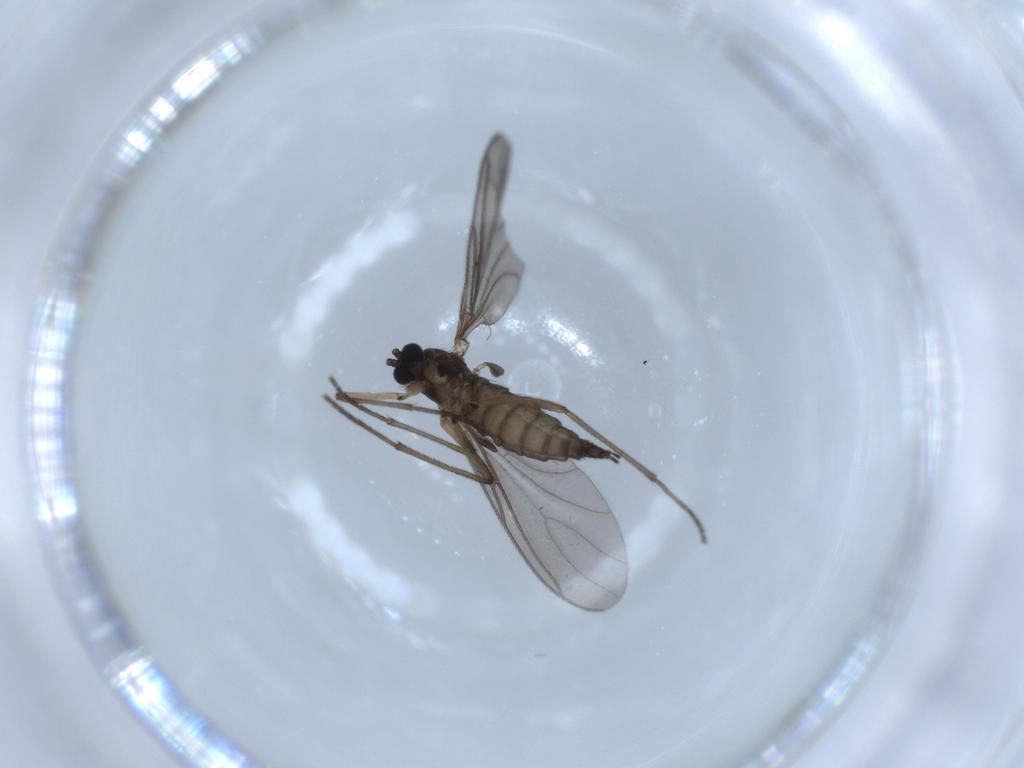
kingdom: Animalia
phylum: Arthropoda
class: Insecta
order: Diptera
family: Sciaridae
